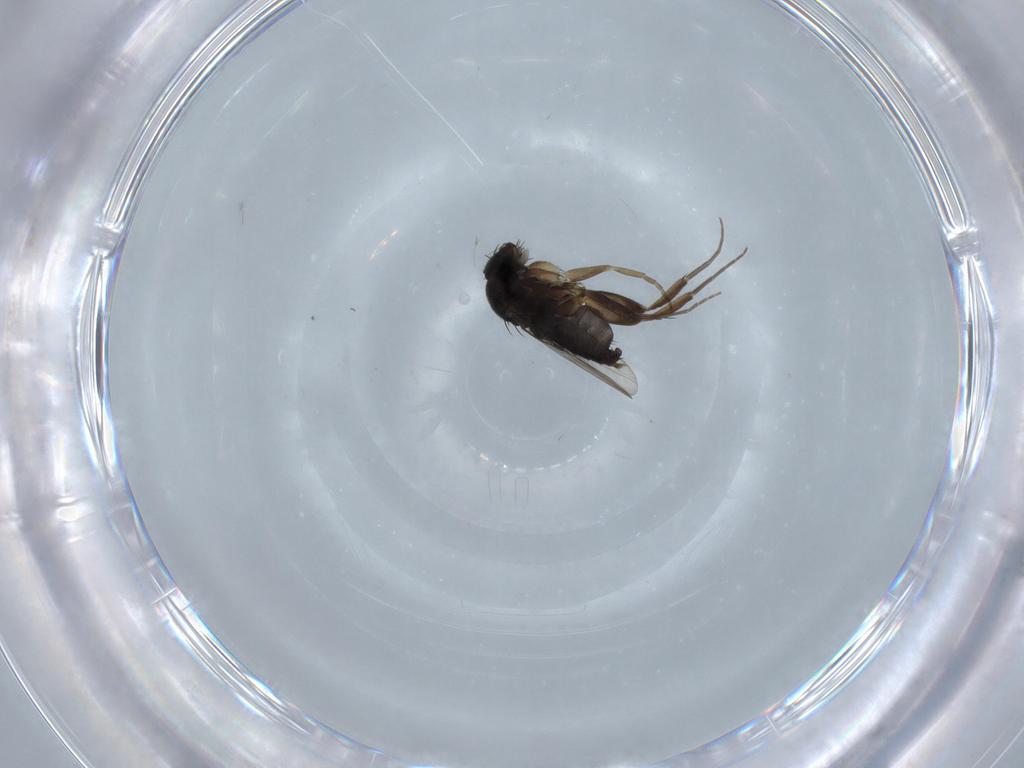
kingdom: Animalia
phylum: Arthropoda
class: Insecta
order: Diptera
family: Phoridae
